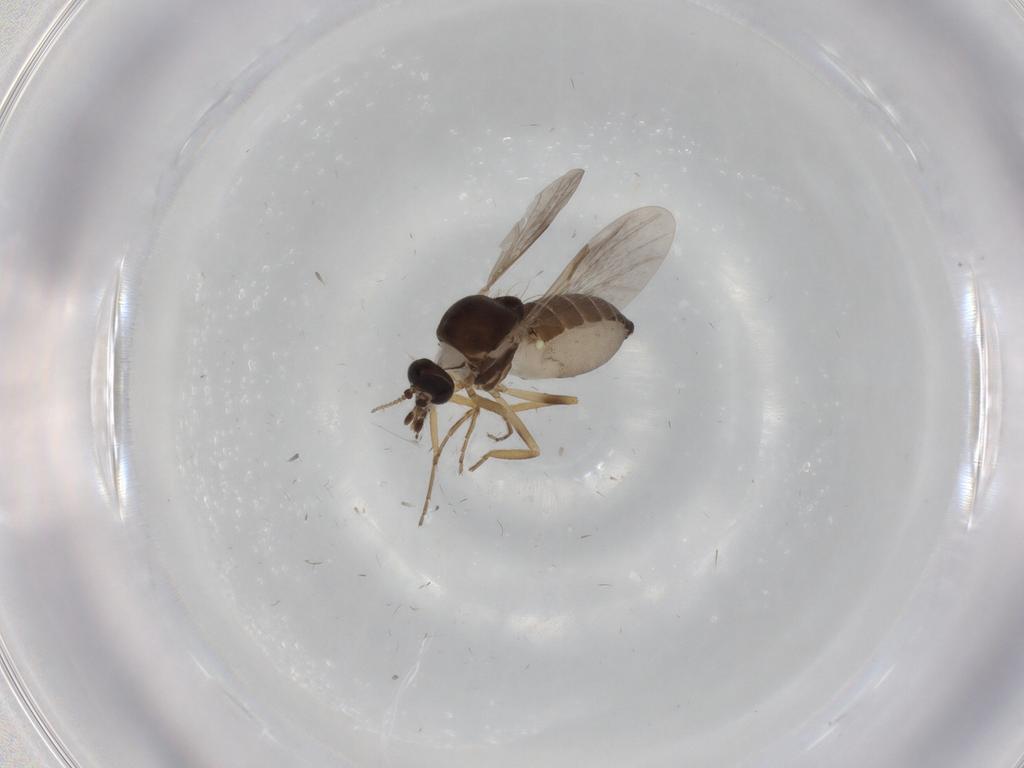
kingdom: Animalia
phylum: Arthropoda
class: Insecta
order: Diptera
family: Ceratopogonidae
